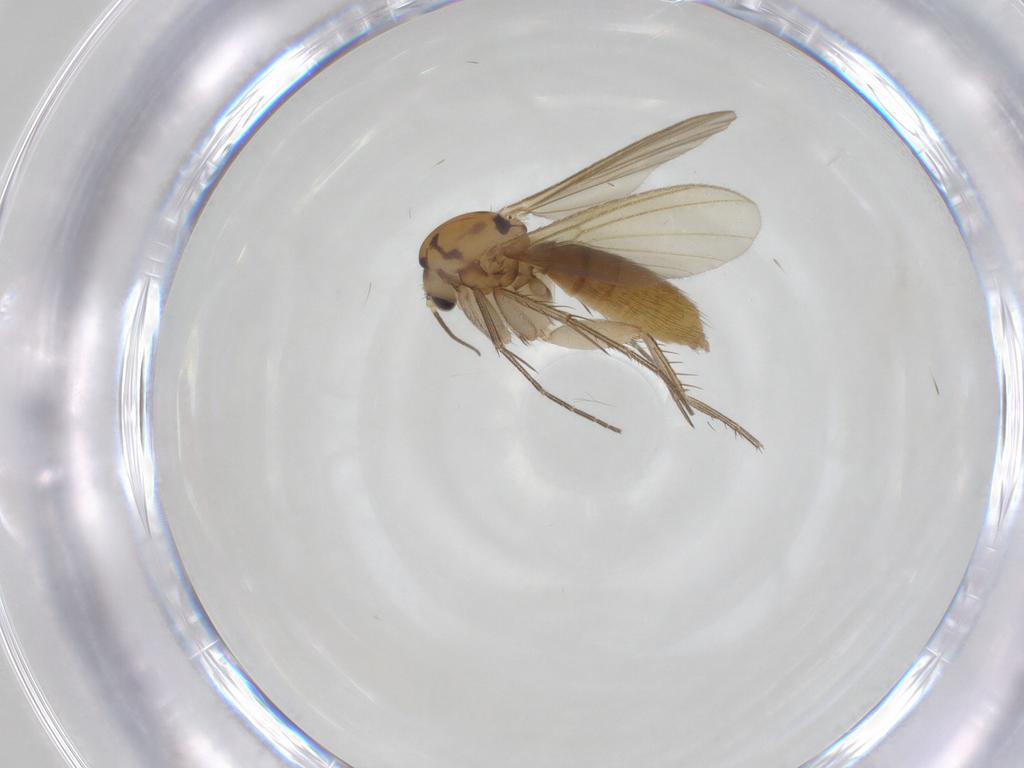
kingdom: Animalia
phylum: Arthropoda
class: Insecta
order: Diptera
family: Mycetophilidae
